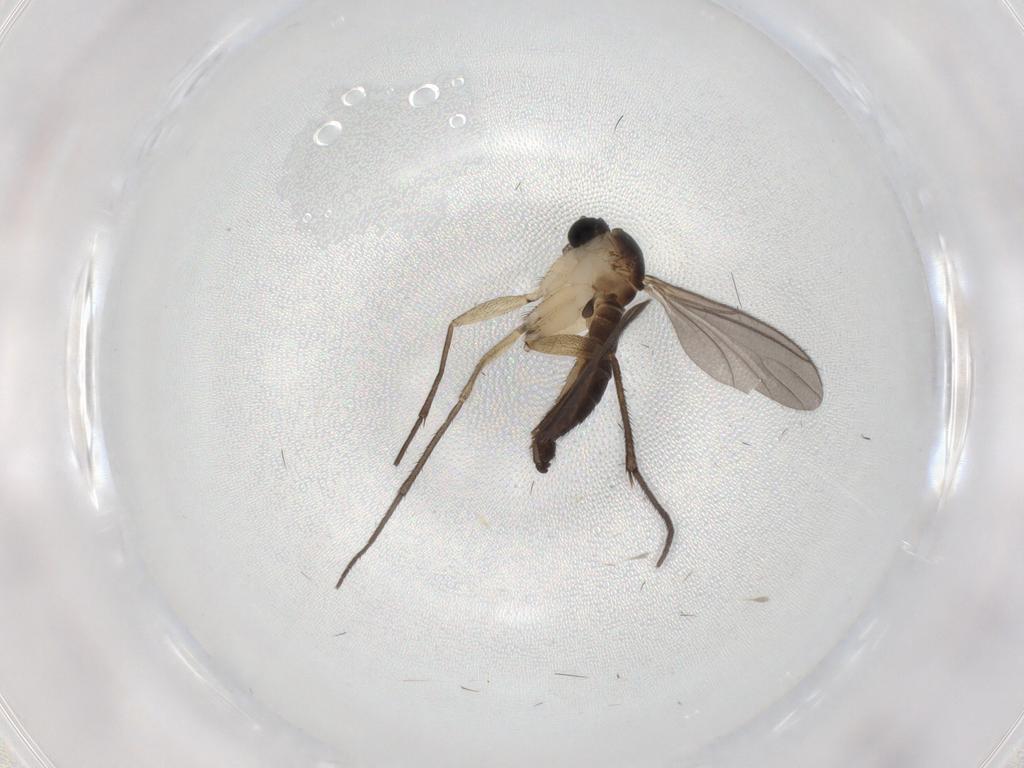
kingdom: Animalia
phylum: Arthropoda
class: Insecta
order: Diptera
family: Sciaridae
